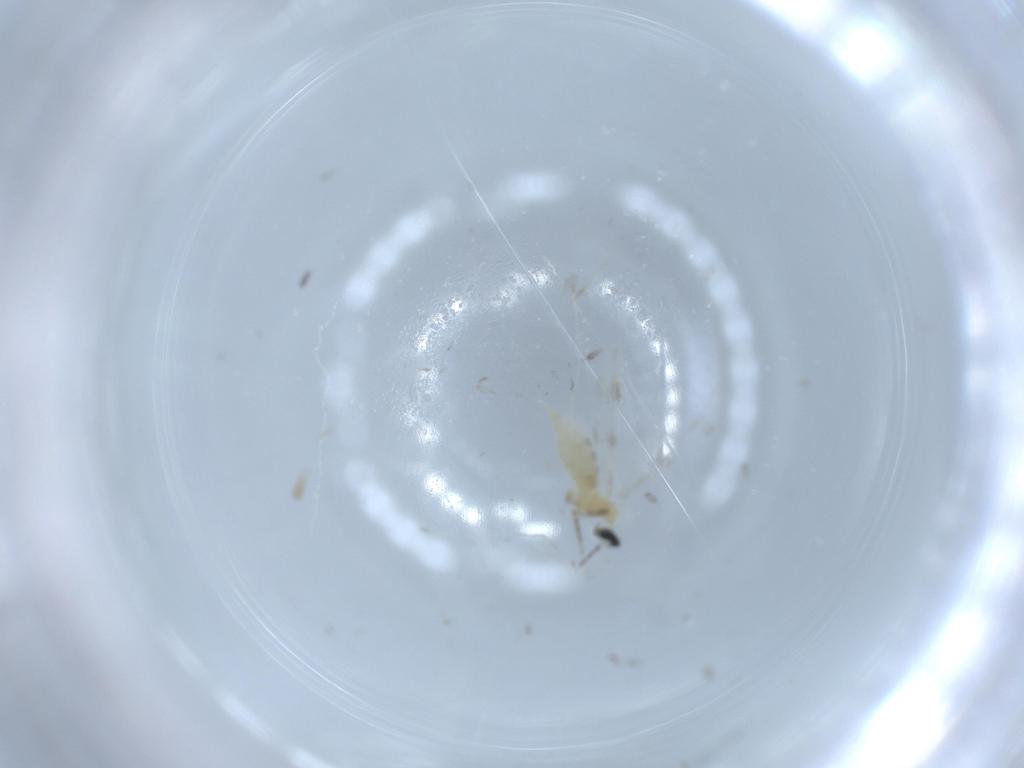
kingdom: Animalia
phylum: Arthropoda
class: Insecta
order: Diptera
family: Cecidomyiidae
